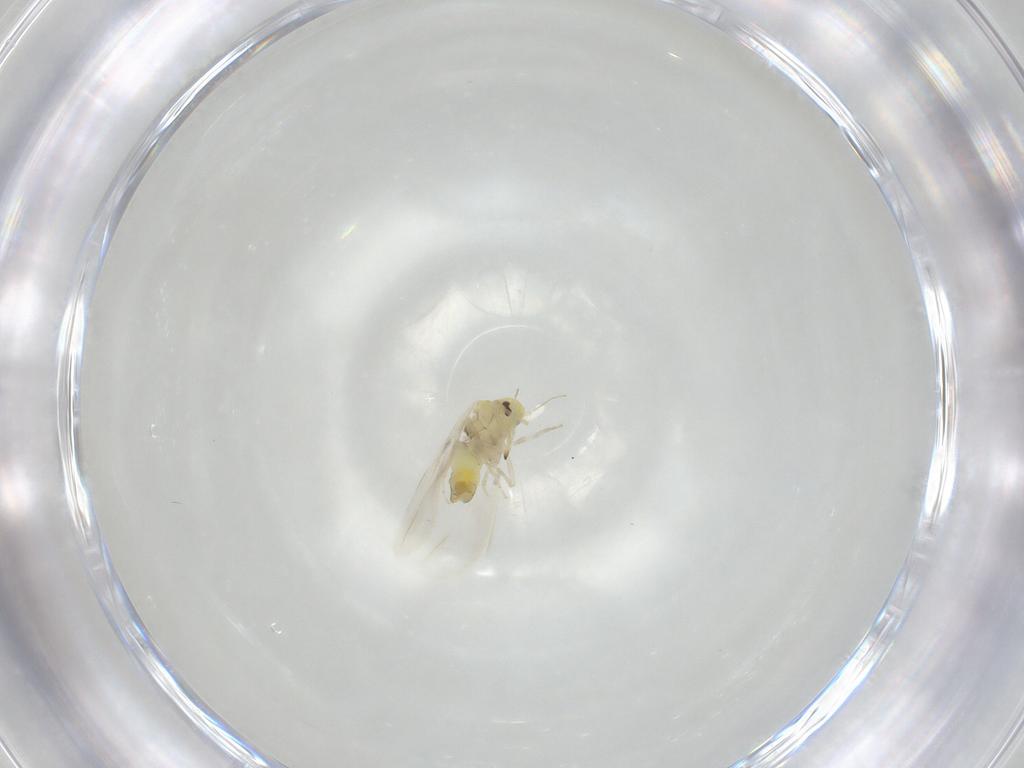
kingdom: Animalia
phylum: Arthropoda
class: Insecta
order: Hemiptera
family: Aleyrodidae
